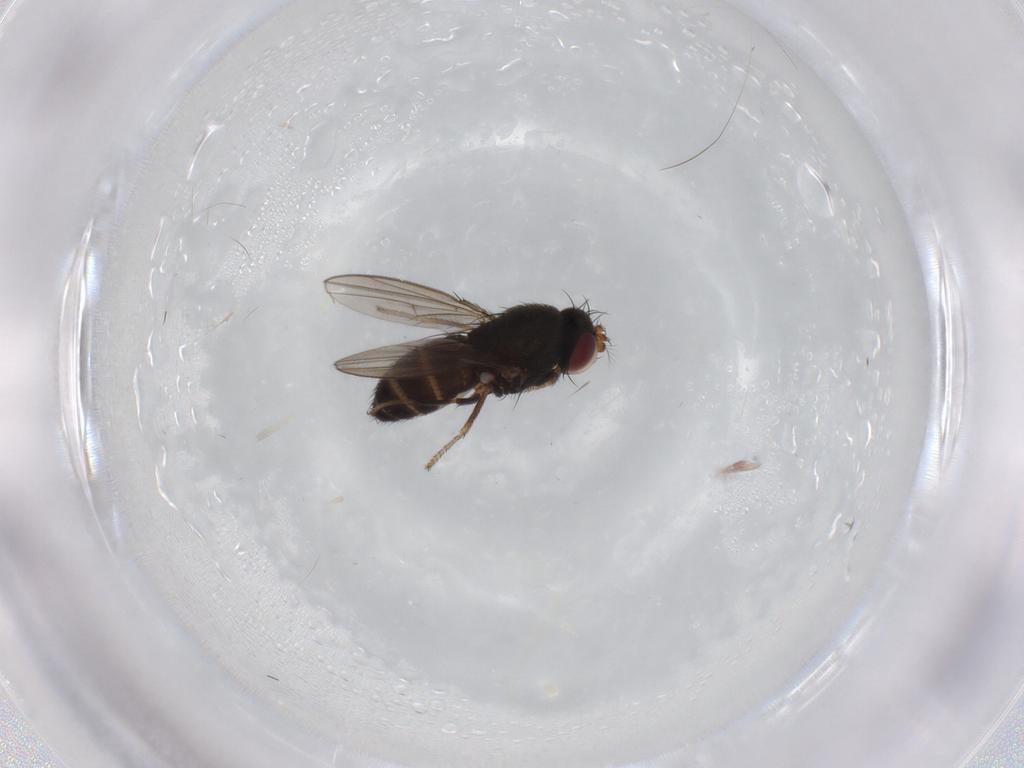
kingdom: Animalia
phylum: Arthropoda
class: Insecta
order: Diptera
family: Ephydridae
